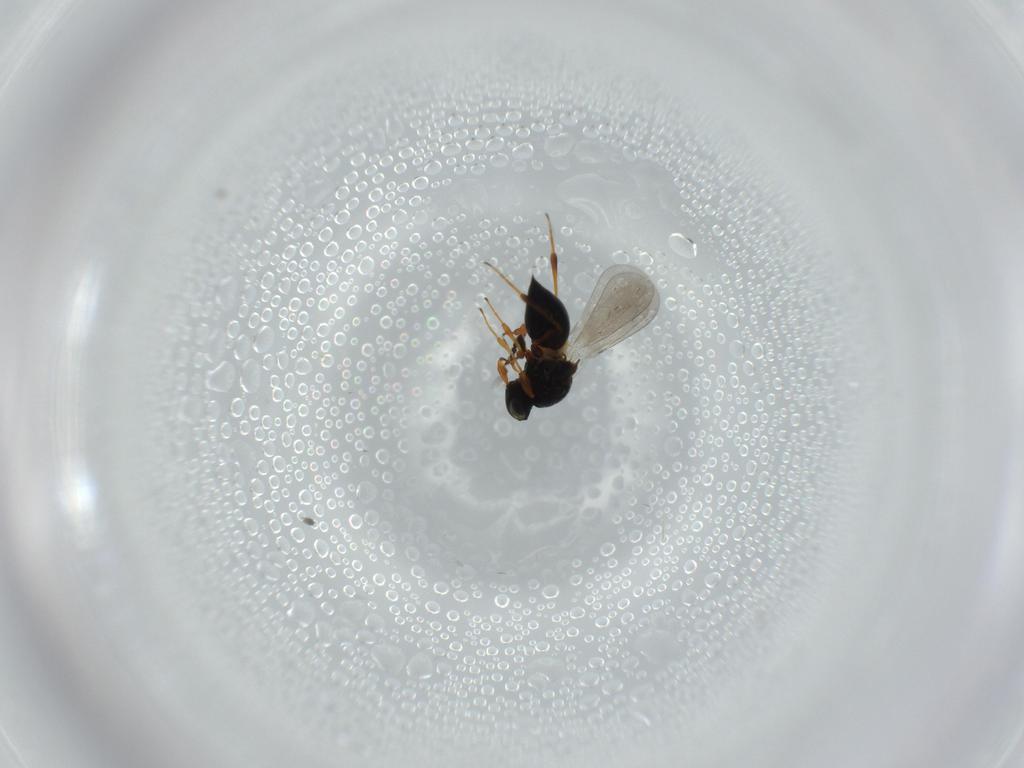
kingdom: Animalia
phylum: Arthropoda
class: Insecta
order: Hymenoptera
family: Platygastridae
